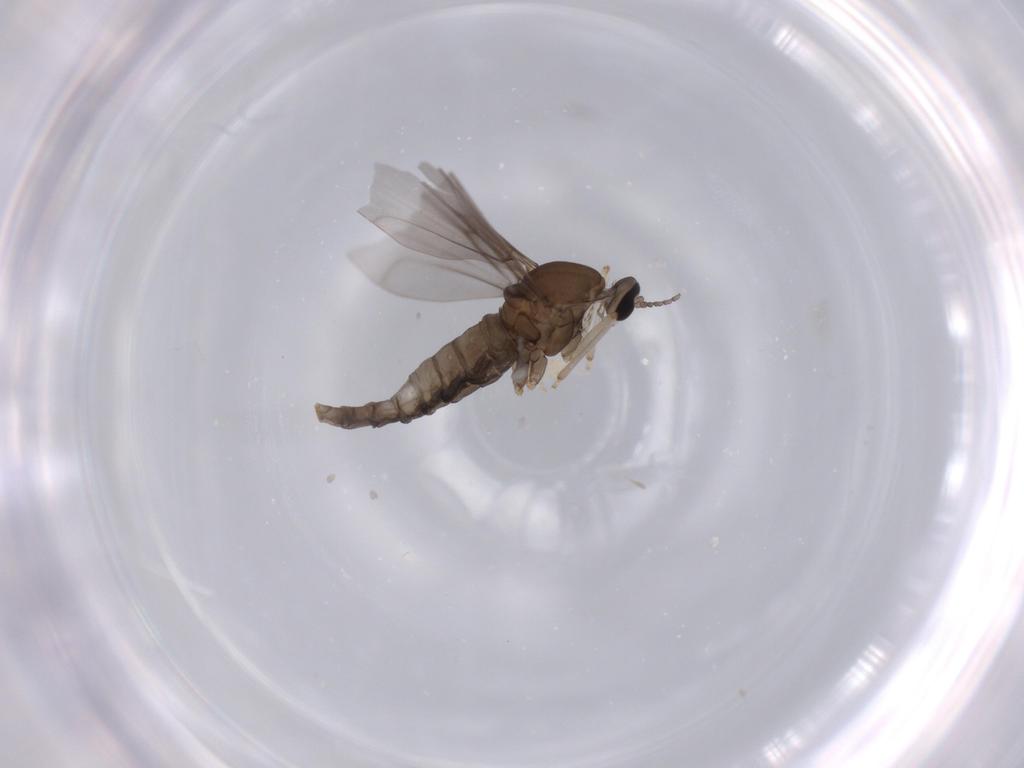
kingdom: Animalia
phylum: Arthropoda
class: Insecta
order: Diptera
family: Cecidomyiidae
